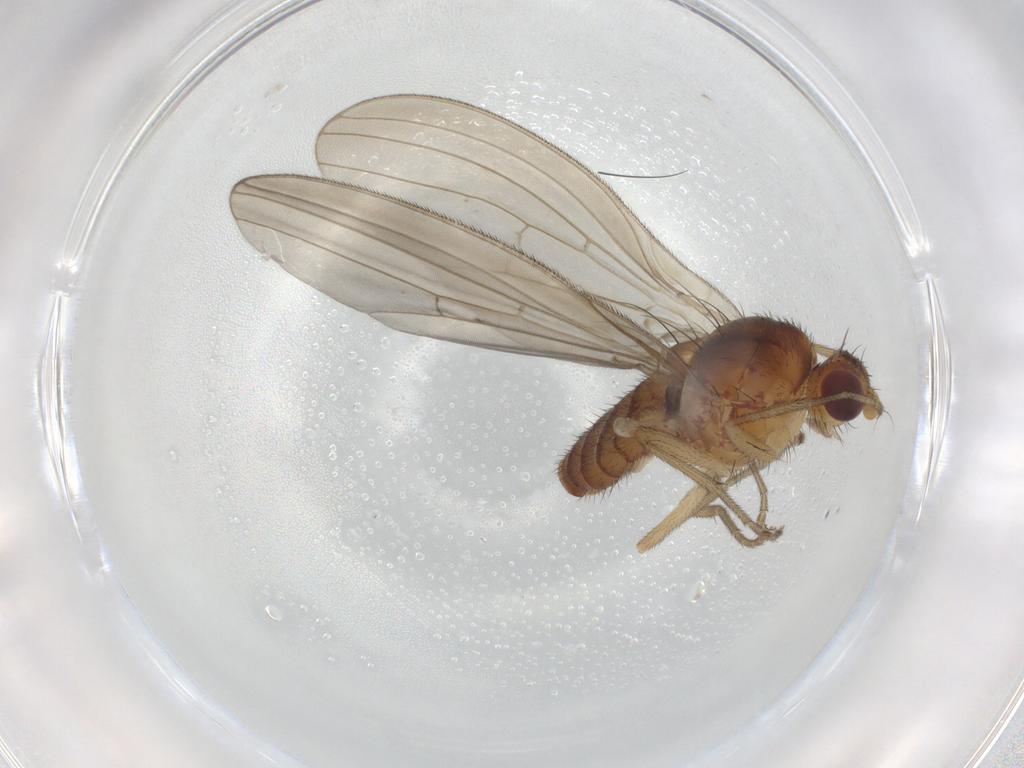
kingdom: Animalia
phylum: Arthropoda
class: Insecta
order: Diptera
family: Natalimyzidae
